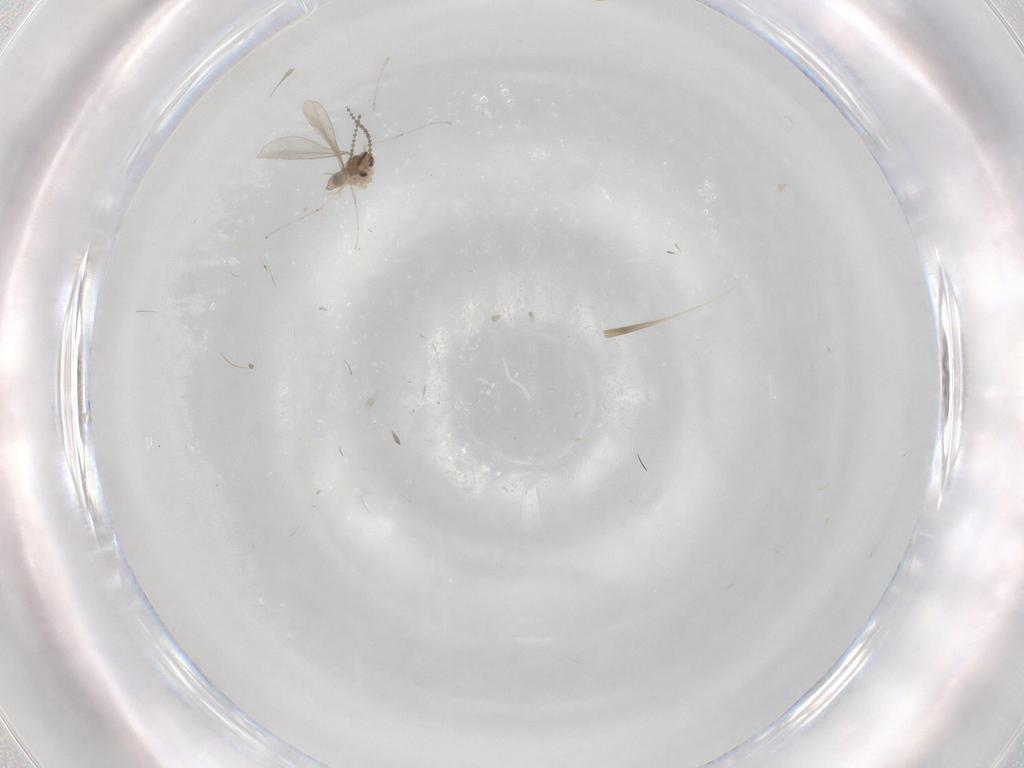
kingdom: Animalia
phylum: Arthropoda
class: Insecta
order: Diptera
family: Cecidomyiidae
